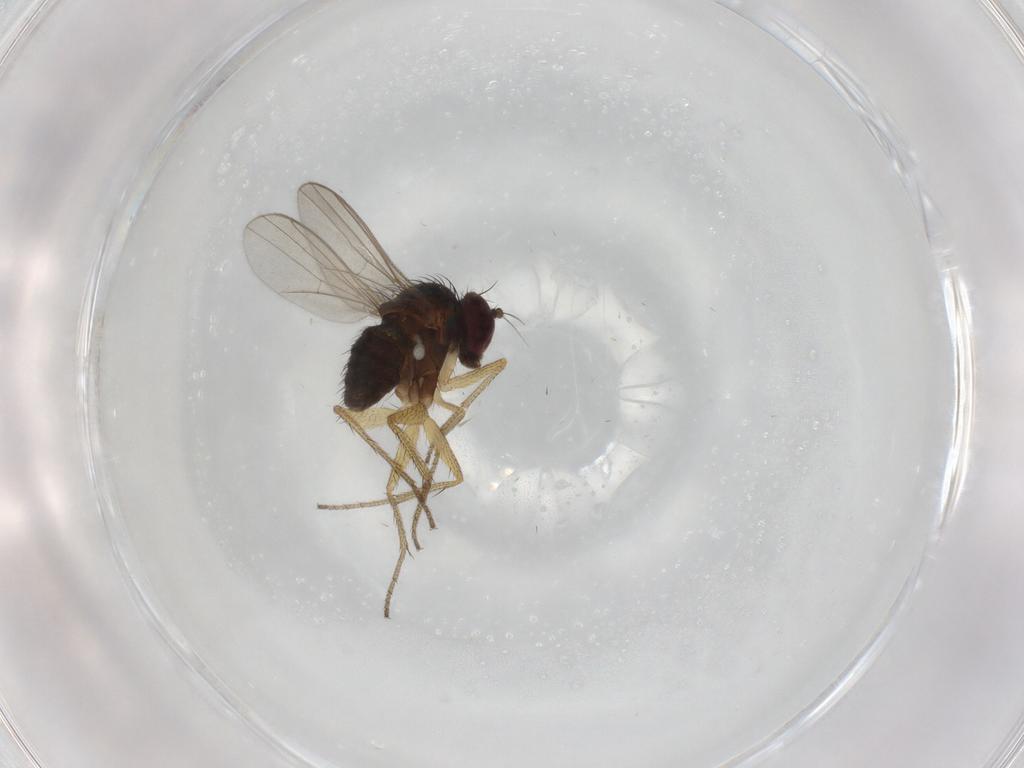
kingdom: Animalia
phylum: Arthropoda
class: Insecta
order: Diptera
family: Dolichopodidae
